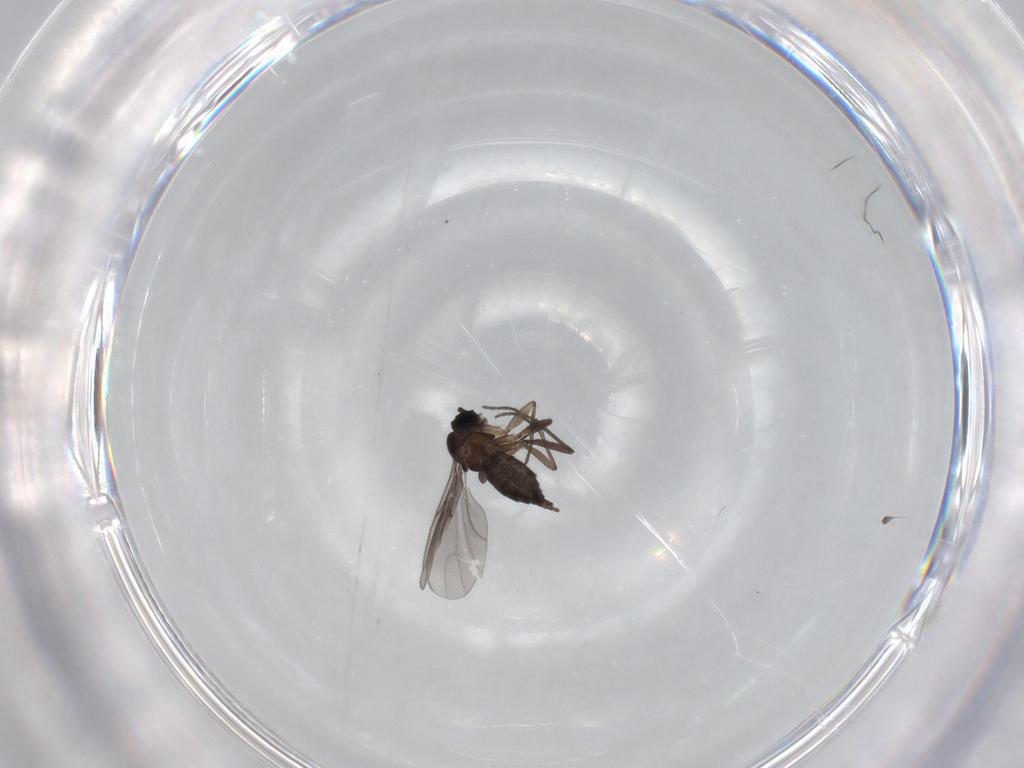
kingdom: Animalia
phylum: Arthropoda
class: Insecta
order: Diptera
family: Sciaridae
